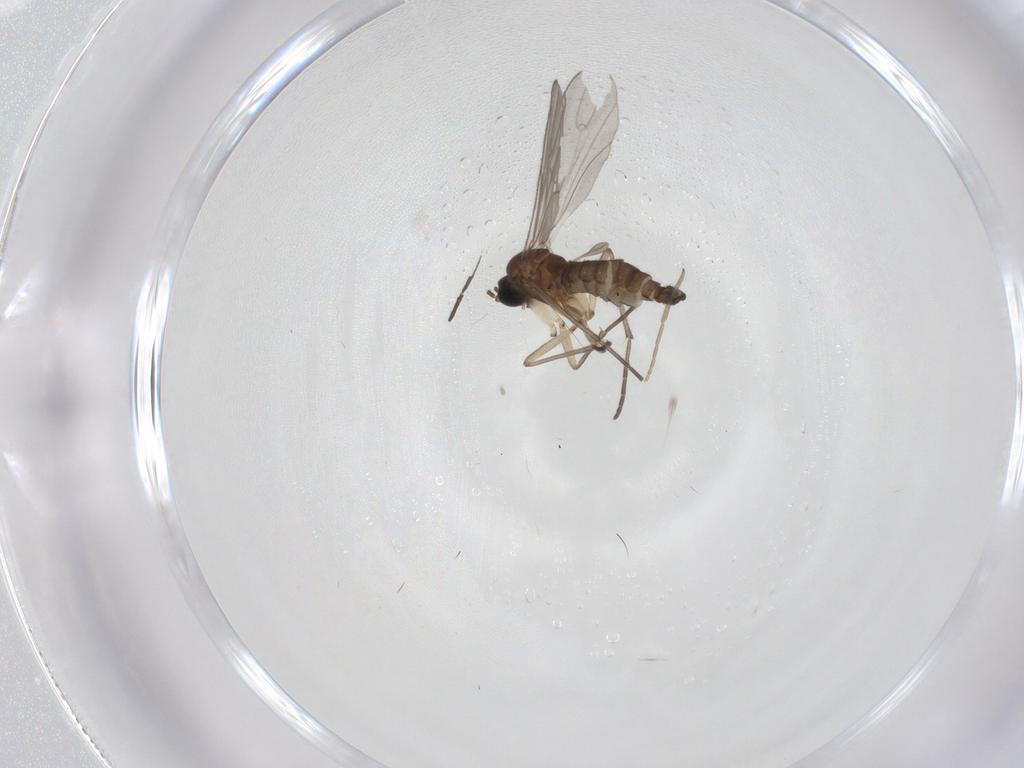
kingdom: Animalia
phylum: Arthropoda
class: Insecta
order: Diptera
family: Sciaridae
